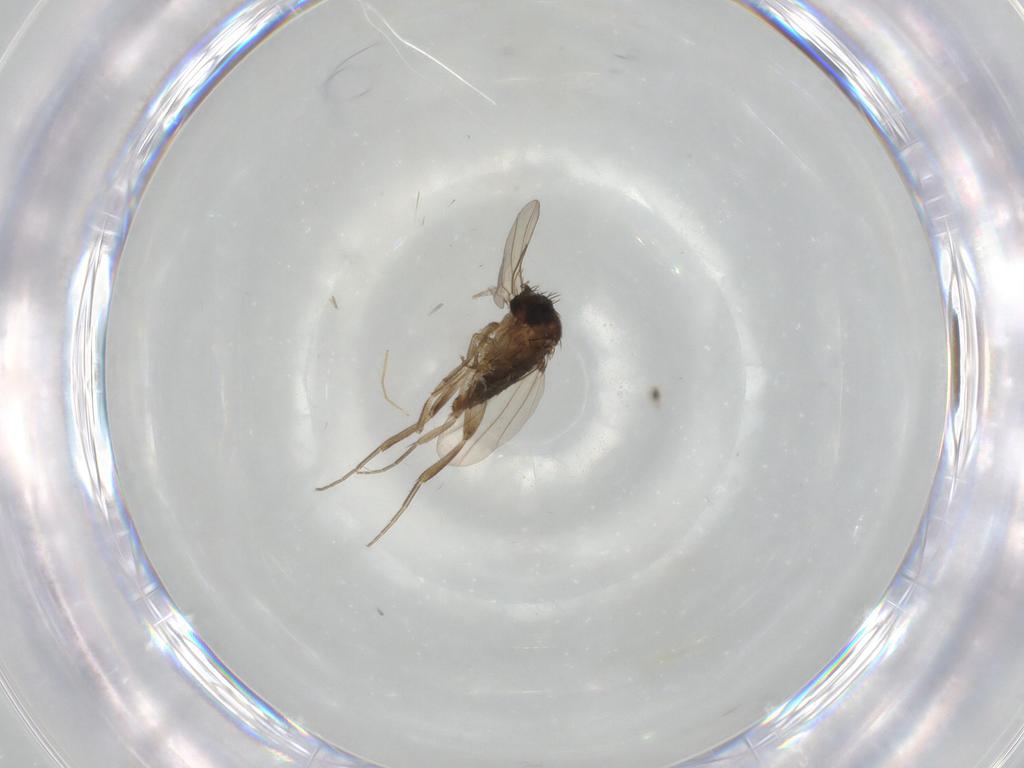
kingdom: Animalia
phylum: Arthropoda
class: Insecta
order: Diptera
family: Phoridae
